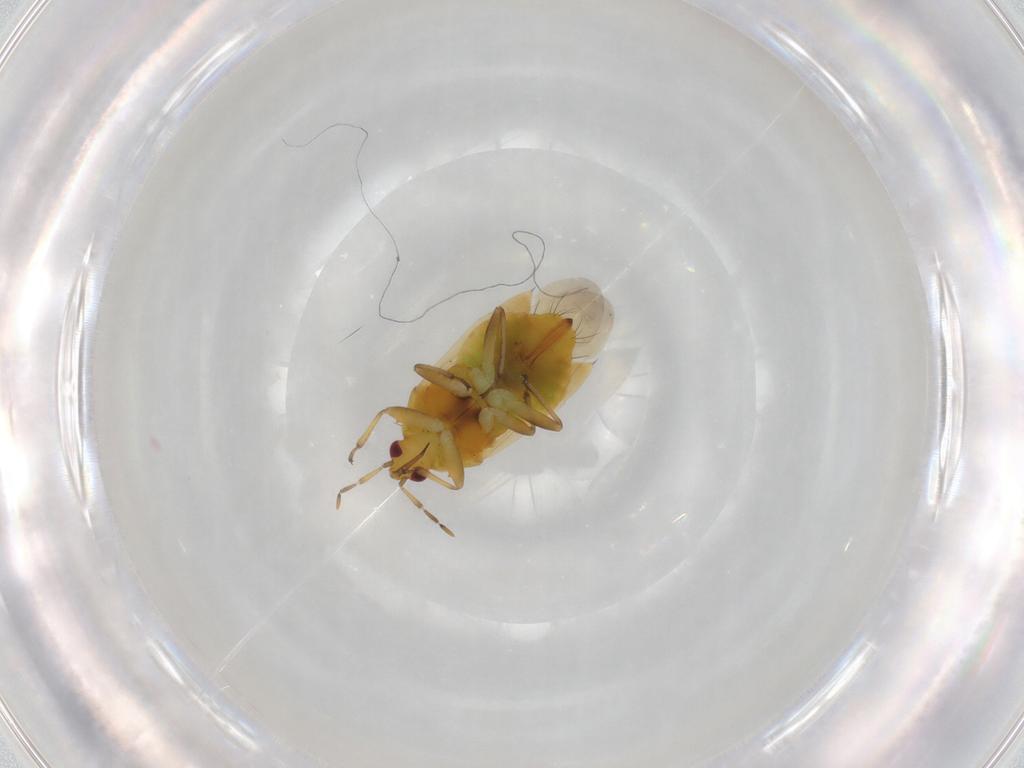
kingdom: Animalia
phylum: Arthropoda
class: Insecta
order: Hemiptera
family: Anthocoridae
